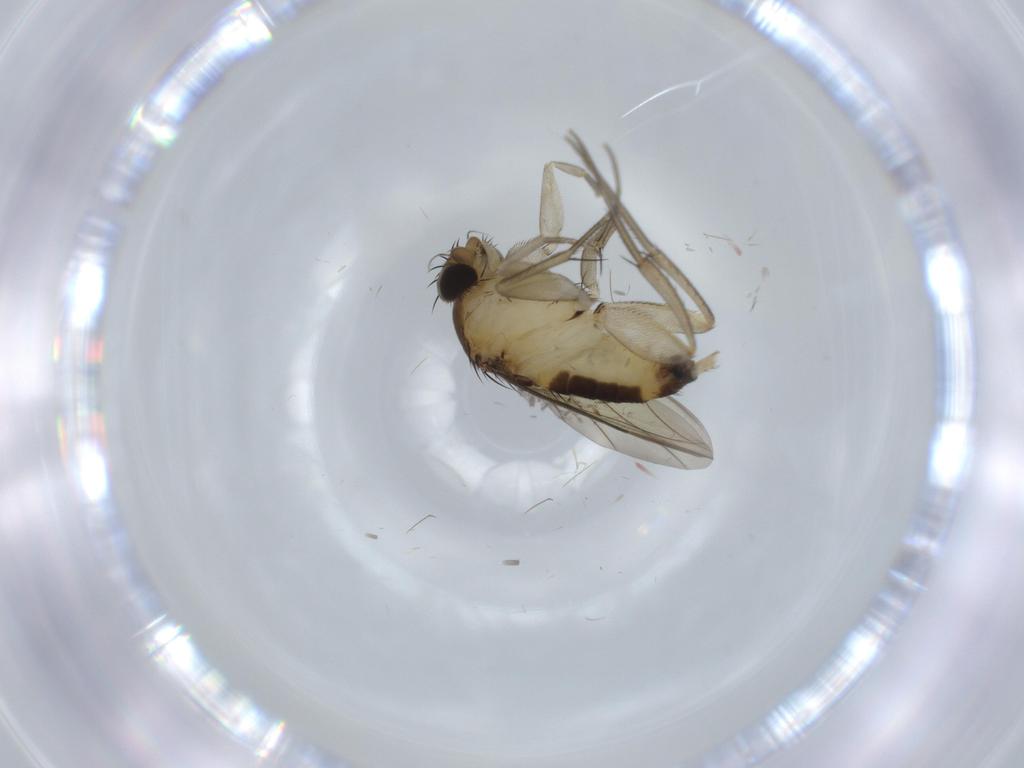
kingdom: Animalia
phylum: Arthropoda
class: Insecta
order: Diptera
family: Cecidomyiidae
